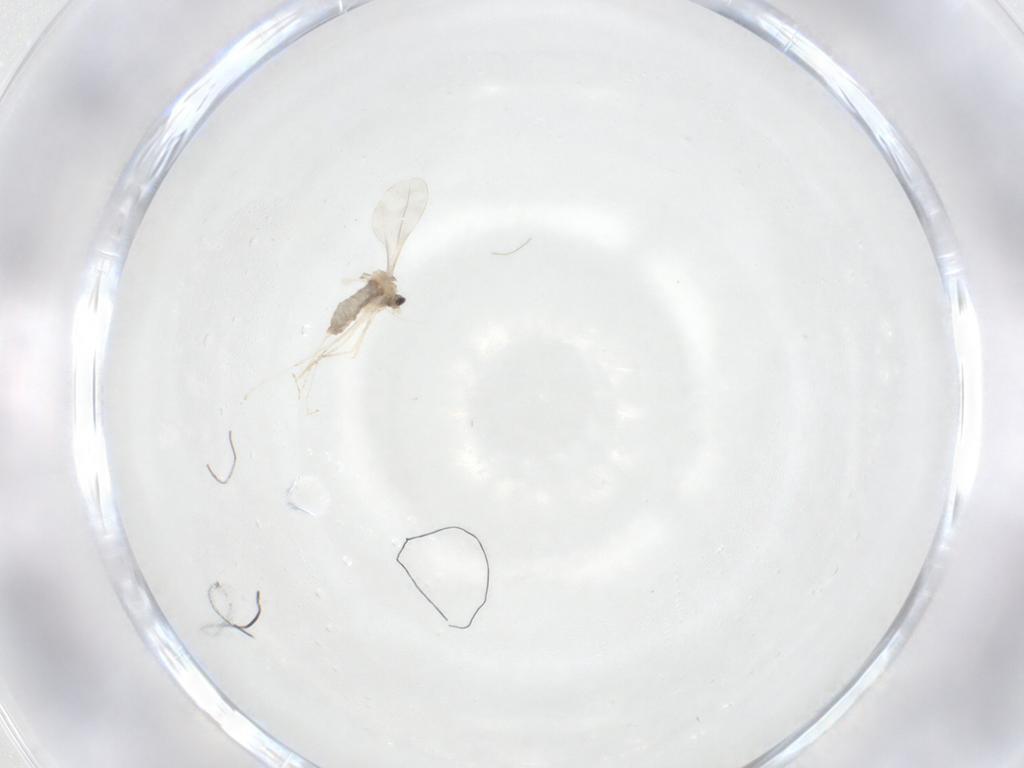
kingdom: Animalia
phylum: Arthropoda
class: Insecta
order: Diptera
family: Cecidomyiidae
